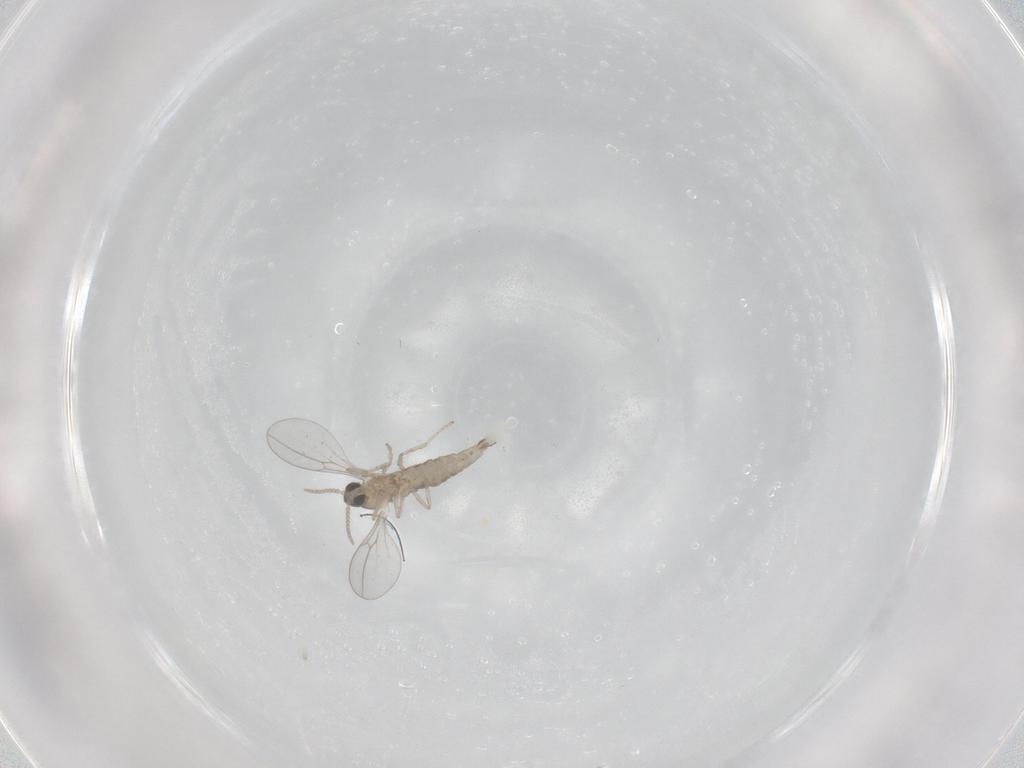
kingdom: Animalia
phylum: Arthropoda
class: Insecta
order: Diptera
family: Cecidomyiidae
